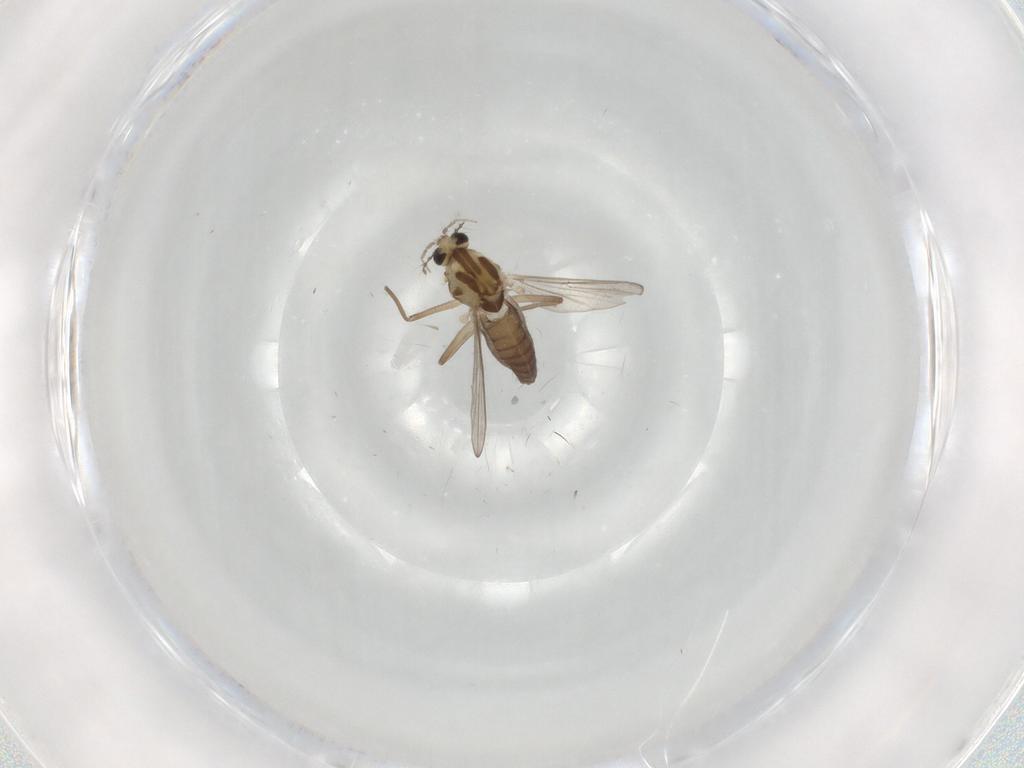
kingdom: Animalia
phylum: Arthropoda
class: Insecta
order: Diptera
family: Chironomidae
